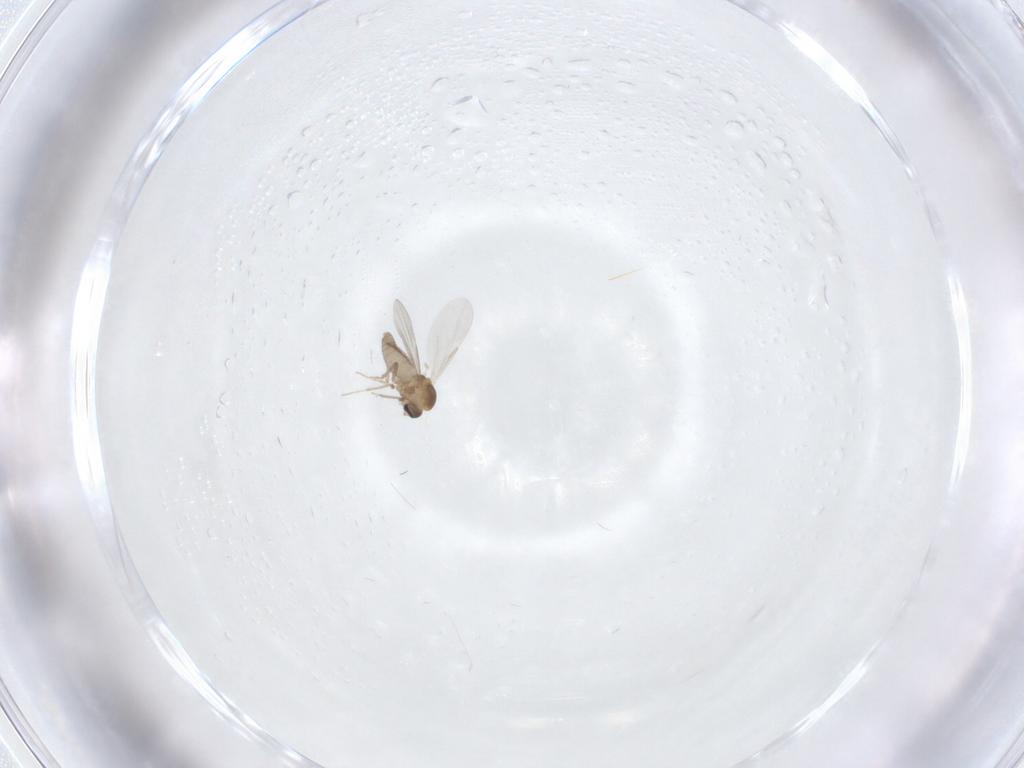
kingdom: Animalia
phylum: Arthropoda
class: Insecta
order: Diptera
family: Ceratopogonidae
